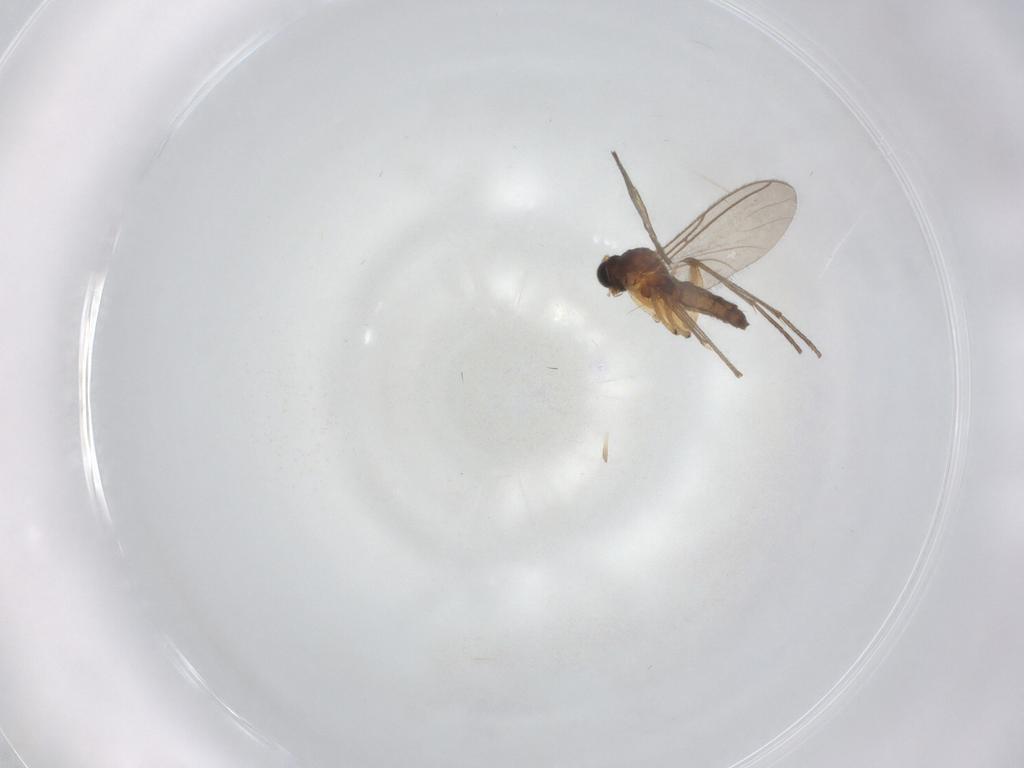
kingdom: Animalia
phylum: Arthropoda
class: Insecta
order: Diptera
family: Sciaridae
